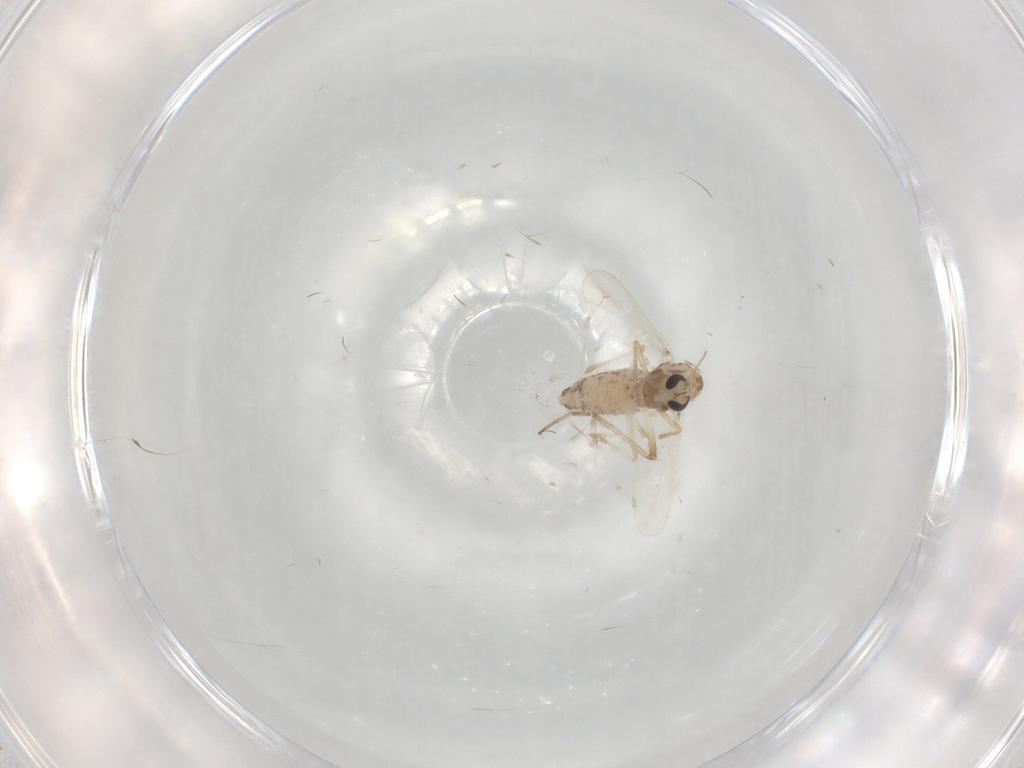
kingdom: Animalia
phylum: Arthropoda
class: Insecta
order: Diptera
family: Chironomidae
